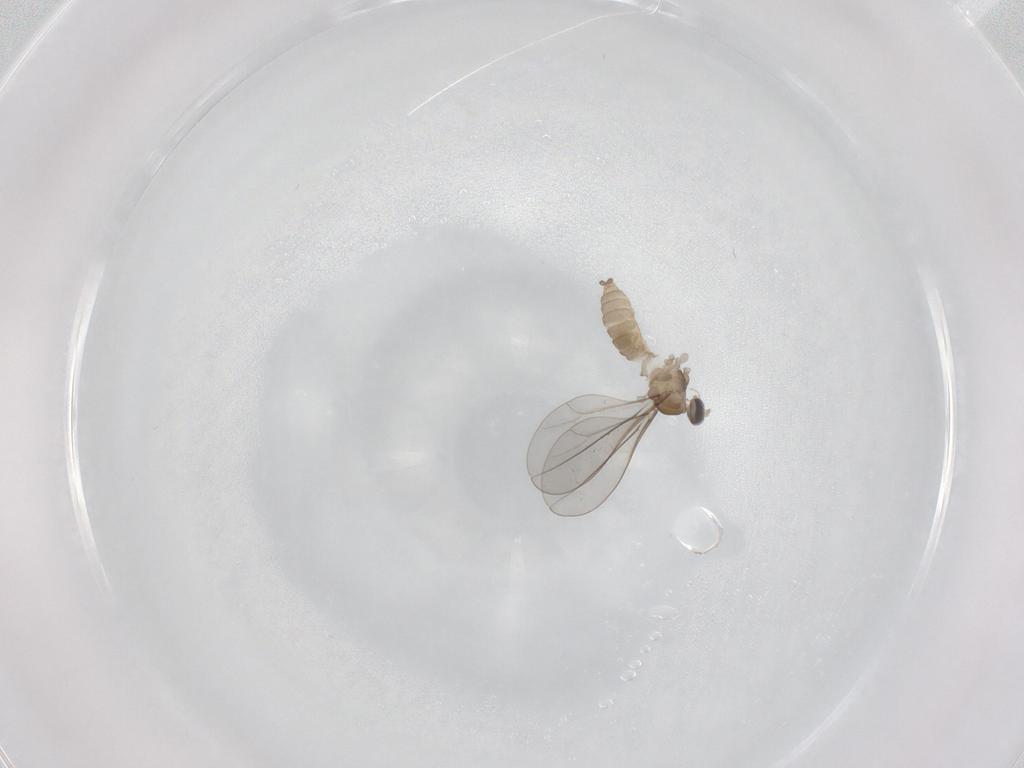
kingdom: Animalia
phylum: Arthropoda
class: Insecta
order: Diptera
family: Cecidomyiidae
